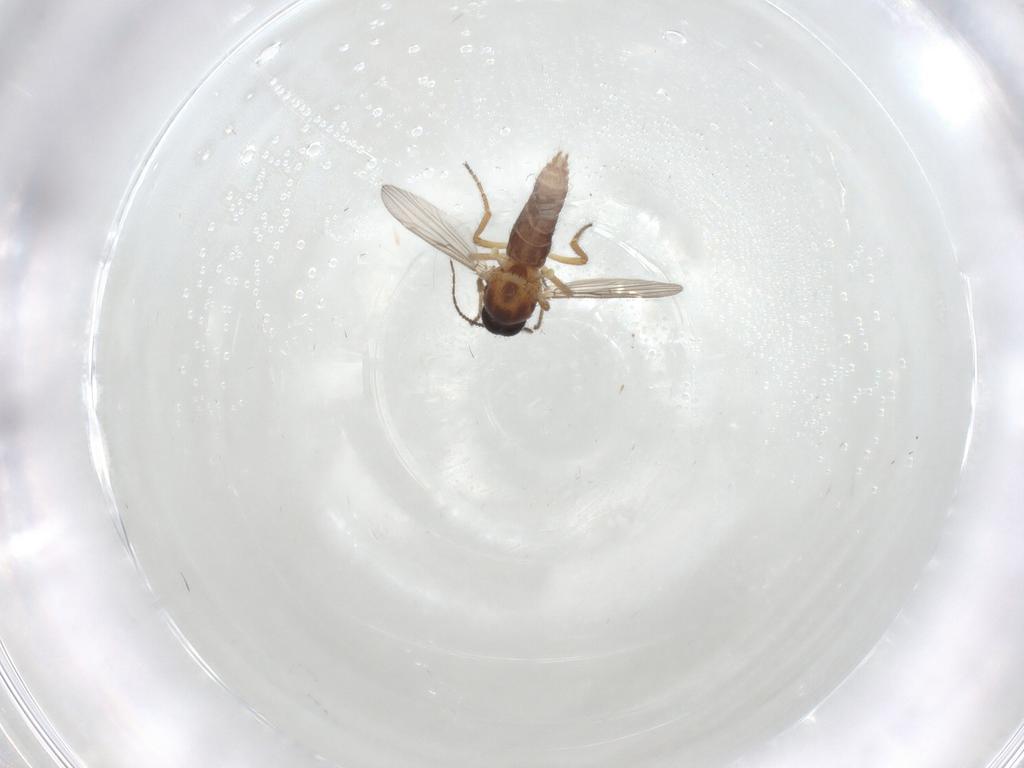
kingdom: Animalia
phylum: Arthropoda
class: Insecta
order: Diptera
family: Ceratopogonidae
